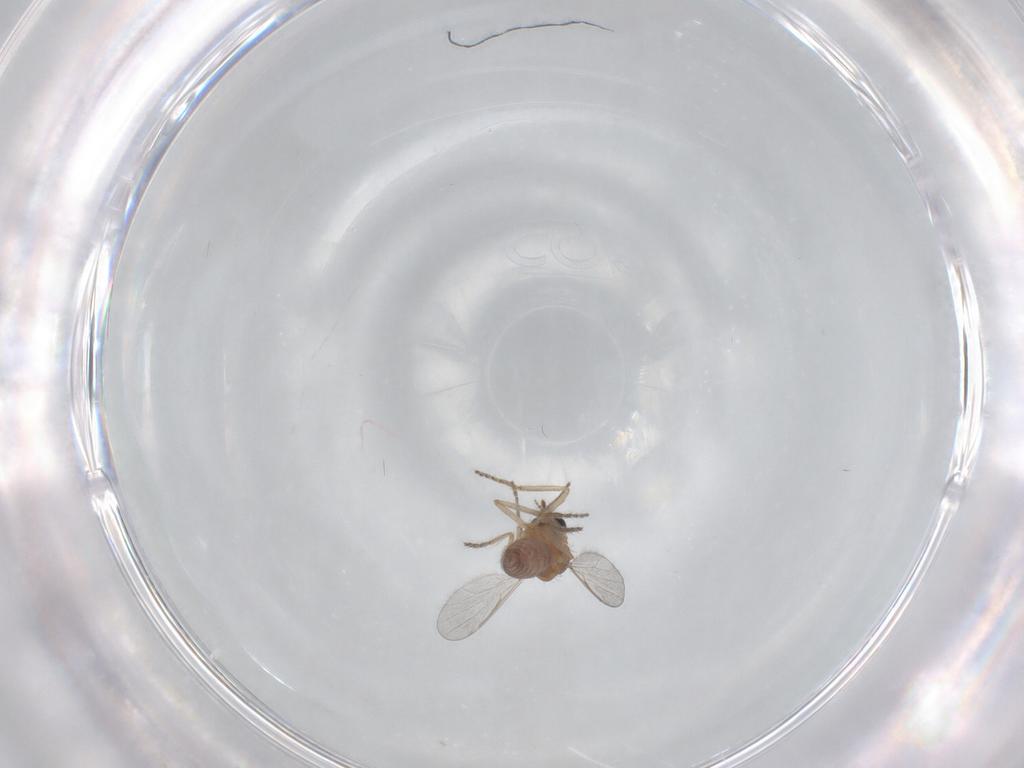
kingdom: Animalia
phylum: Arthropoda
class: Insecta
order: Diptera
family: Ceratopogonidae
